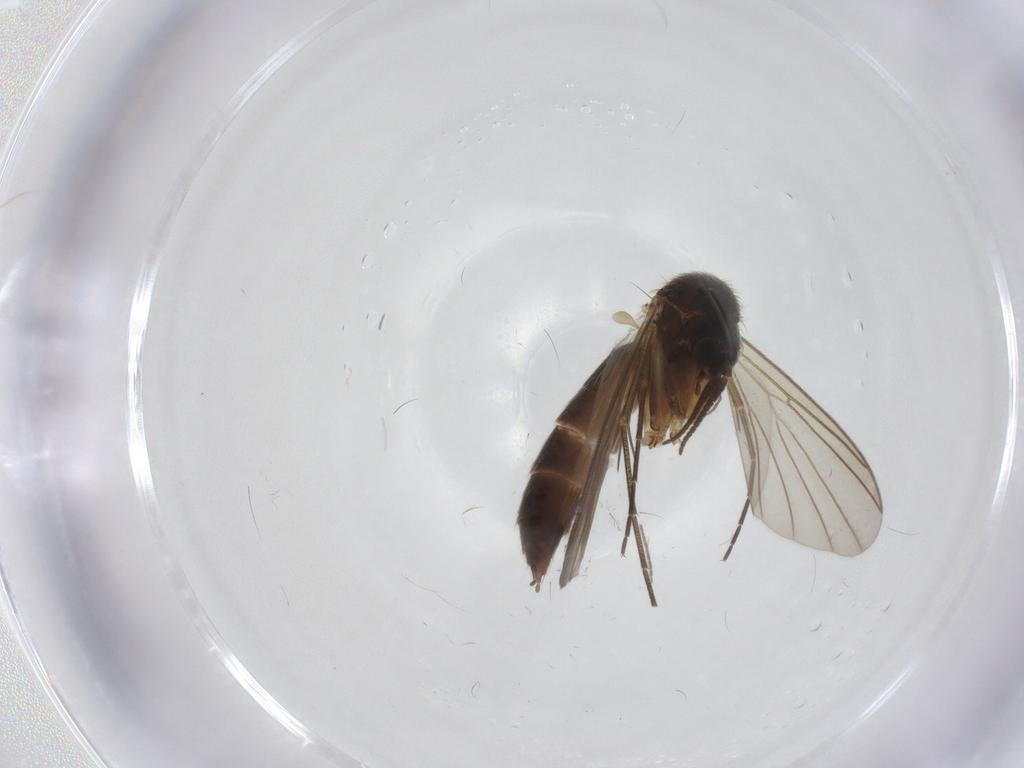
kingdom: Animalia
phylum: Arthropoda
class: Insecta
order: Diptera
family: Mycetophilidae
